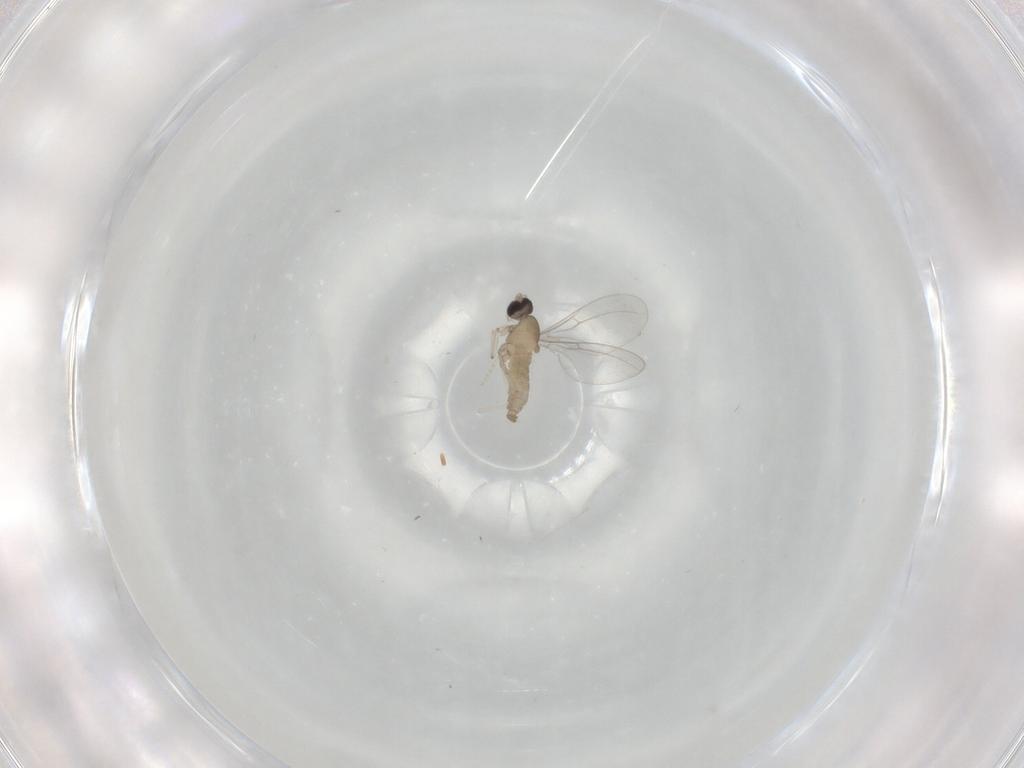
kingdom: Animalia
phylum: Arthropoda
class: Insecta
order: Diptera
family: Cecidomyiidae
